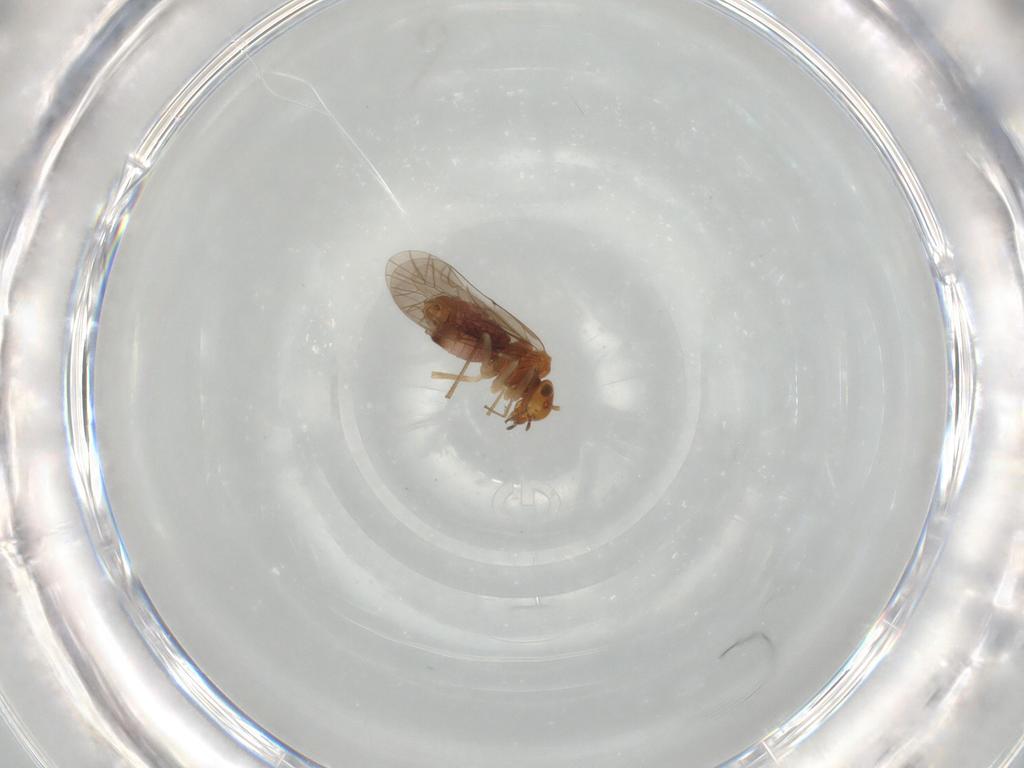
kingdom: Animalia
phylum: Arthropoda
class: Insecta
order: Psocodea
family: Lachesillidae
